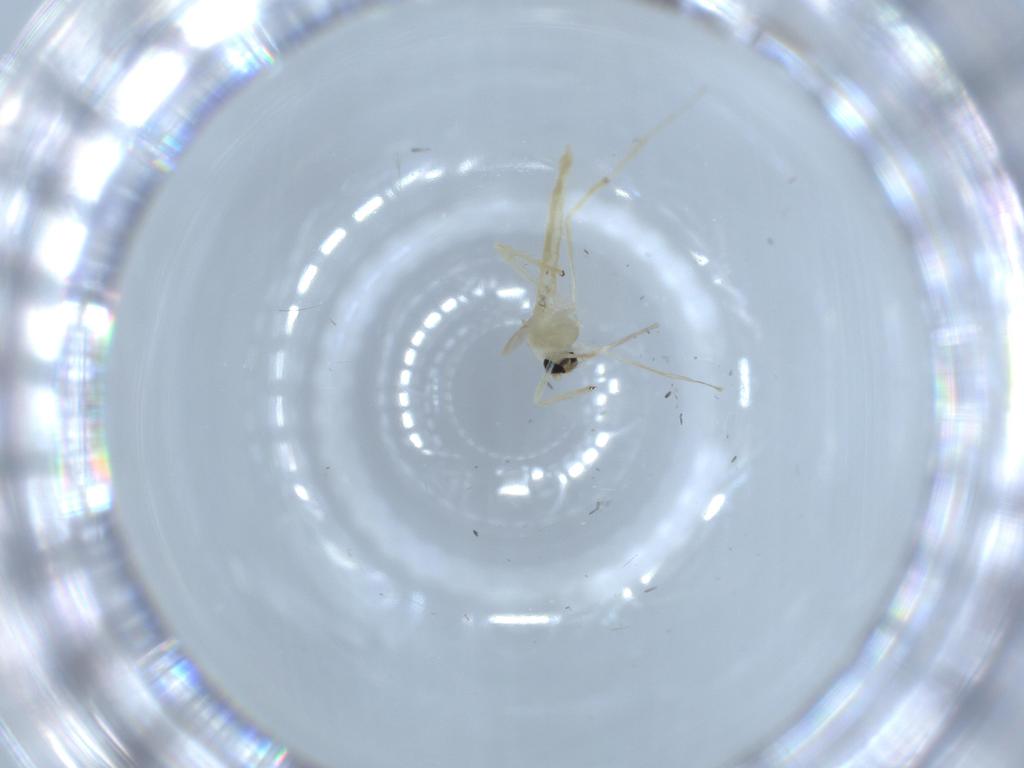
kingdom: Animalia
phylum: Arthropoda
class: Insecta
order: Diptera
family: Chironomidae
